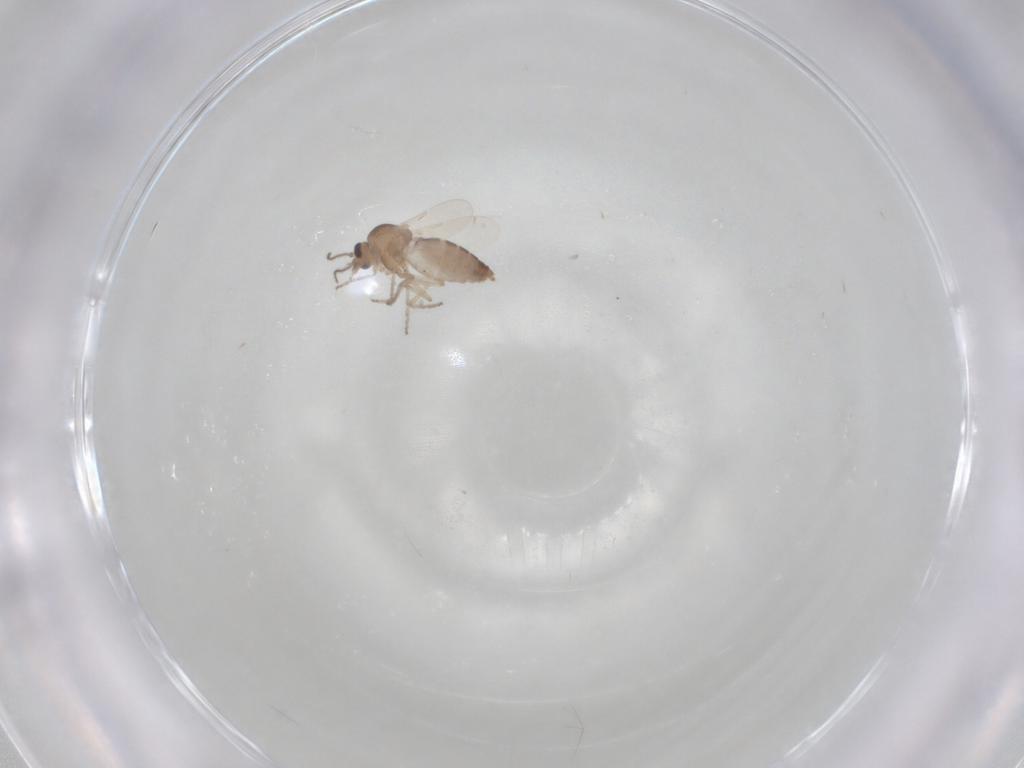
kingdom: Animalia
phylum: Arthropoda
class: Insecta
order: Diptera
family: Ceratopogonidae
